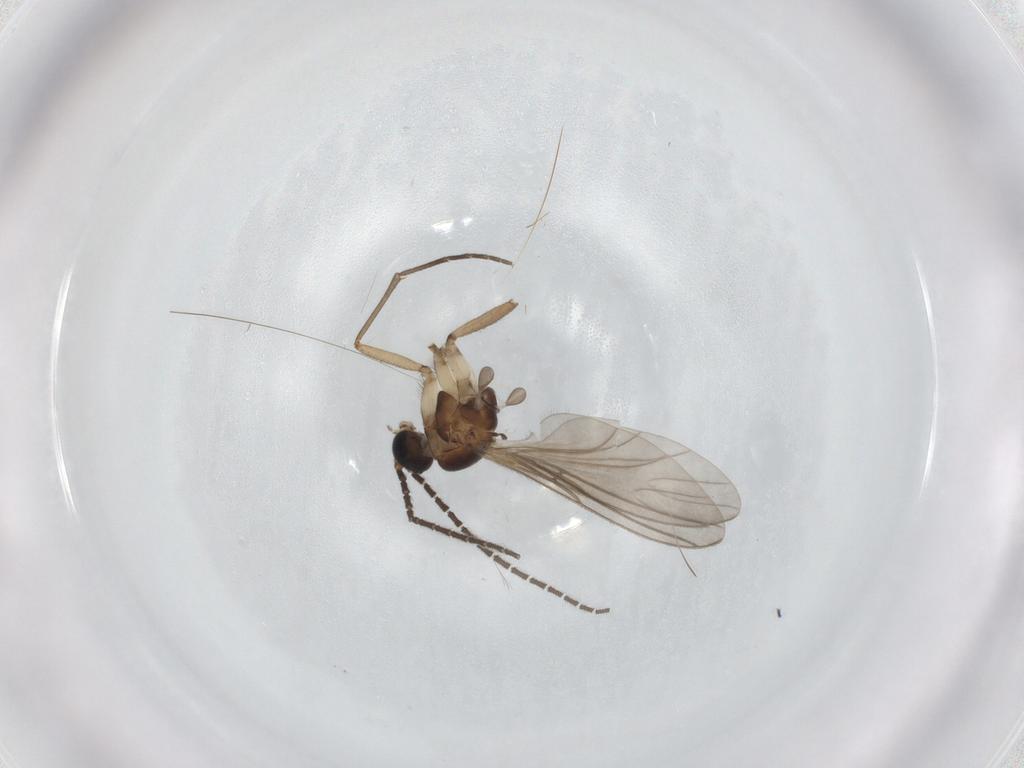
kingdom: Animalia
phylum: Arthropoda
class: Insecta
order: Diptera
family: Sciaridae
